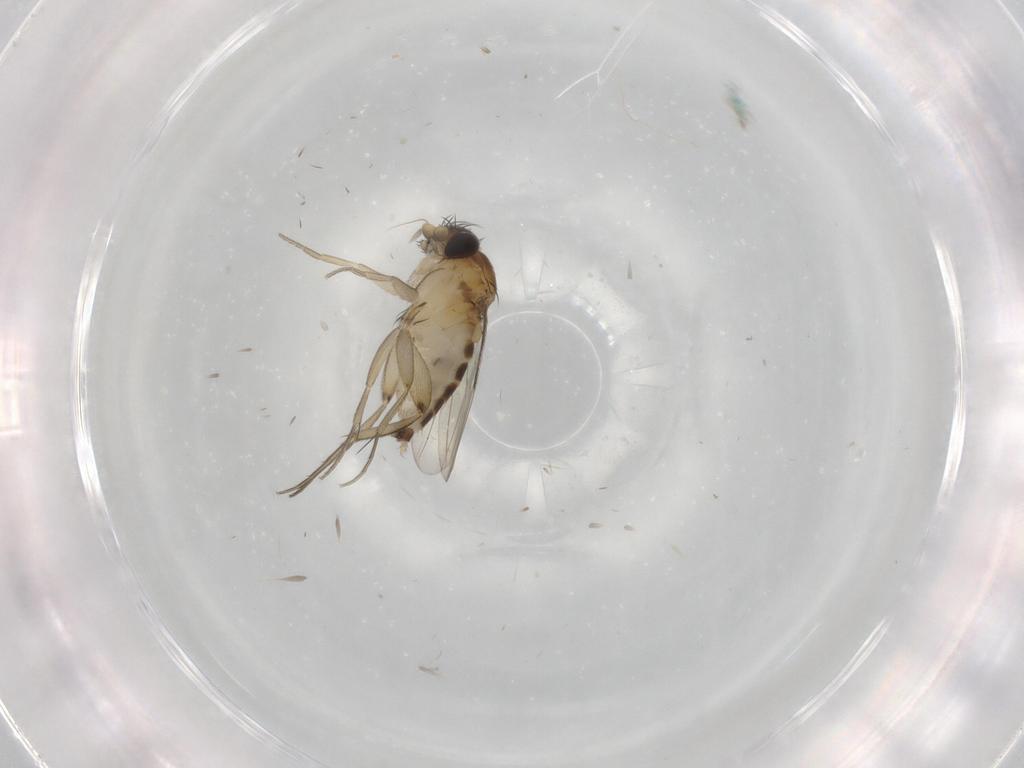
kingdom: Animalia
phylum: Arthropoda
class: Insecta
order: Diptera
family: Phoridae
